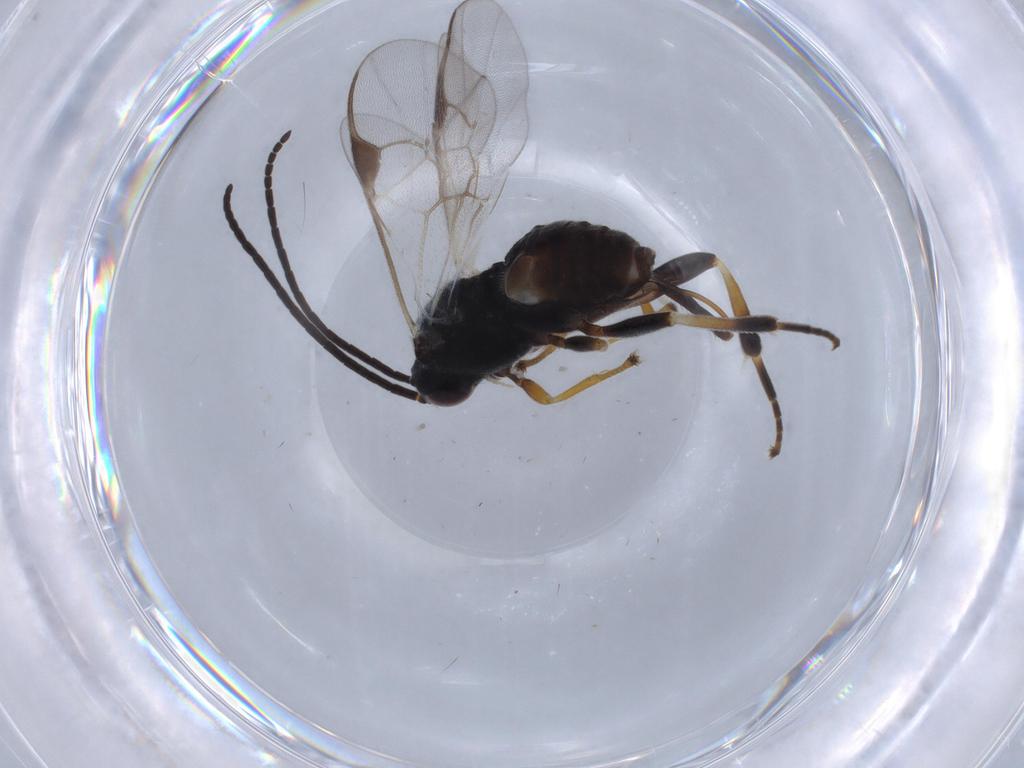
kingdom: Animalia
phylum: Arthropoda
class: Insecta
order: Hymenoptera
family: Braconidae
